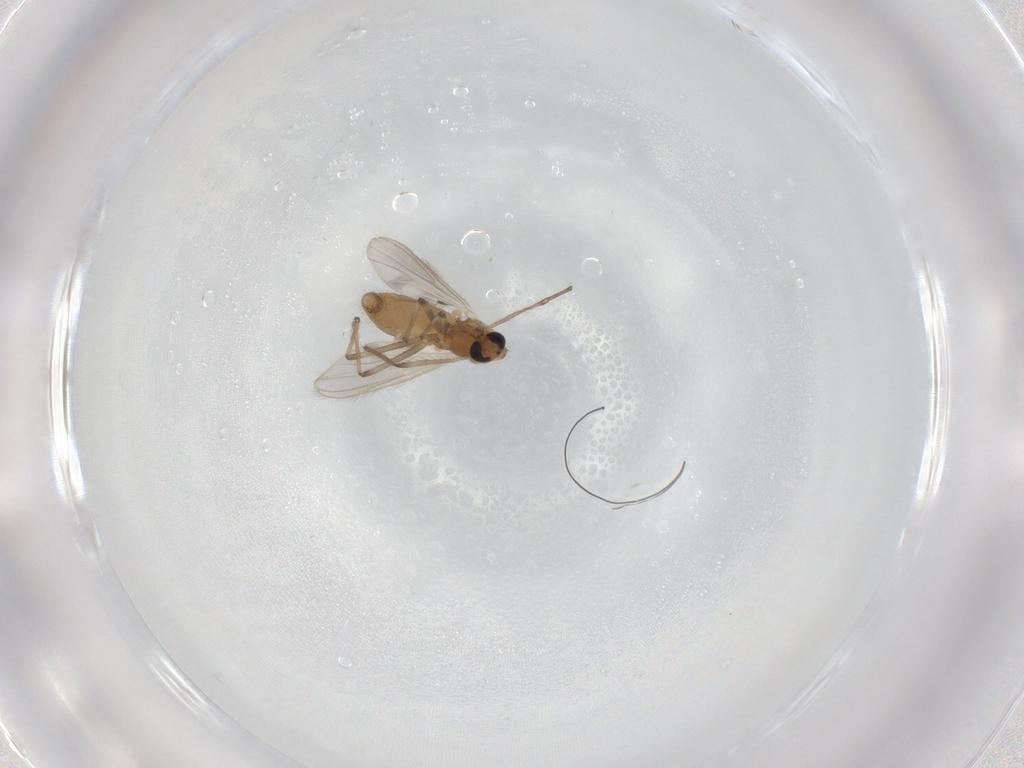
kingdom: Animalia
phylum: Arthropoda
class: Insecta
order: Diptera
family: Chironomidae
